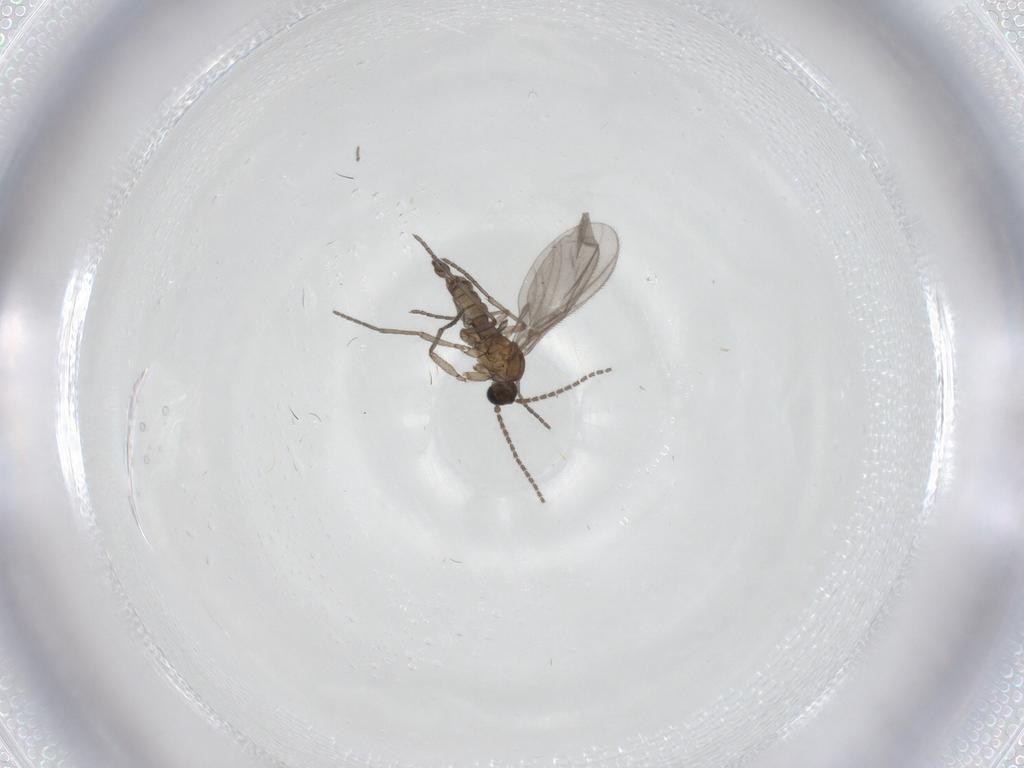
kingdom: Animalia
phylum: Arthropoda
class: Insecta
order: Diptera
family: Sciaridae
